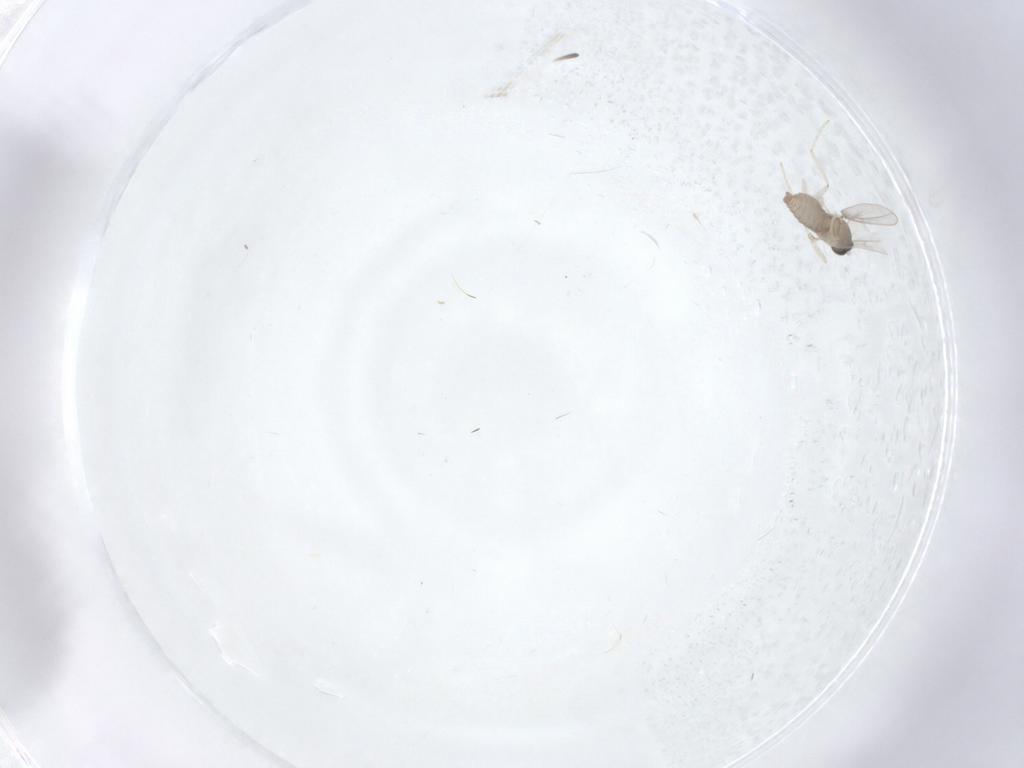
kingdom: Animalia
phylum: Arthropoda
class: Insecta
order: Diptera
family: Cecidomyiidae
